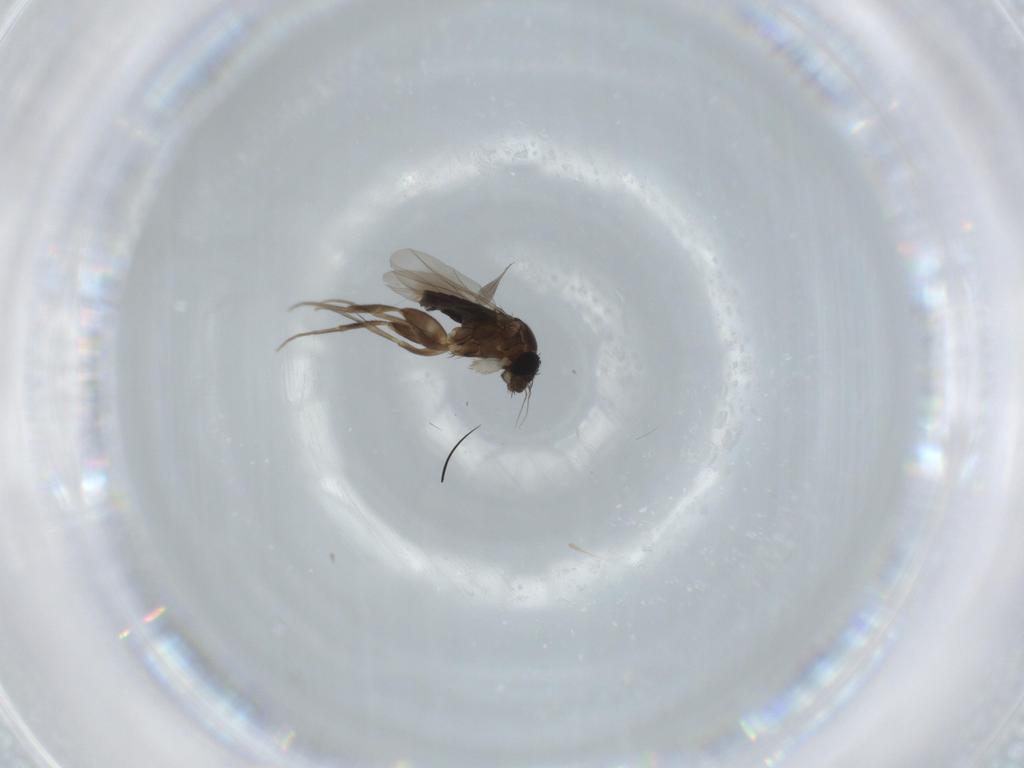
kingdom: Animalia
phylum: Arthropoda
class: Insecta
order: Diptera
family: Phoridae
